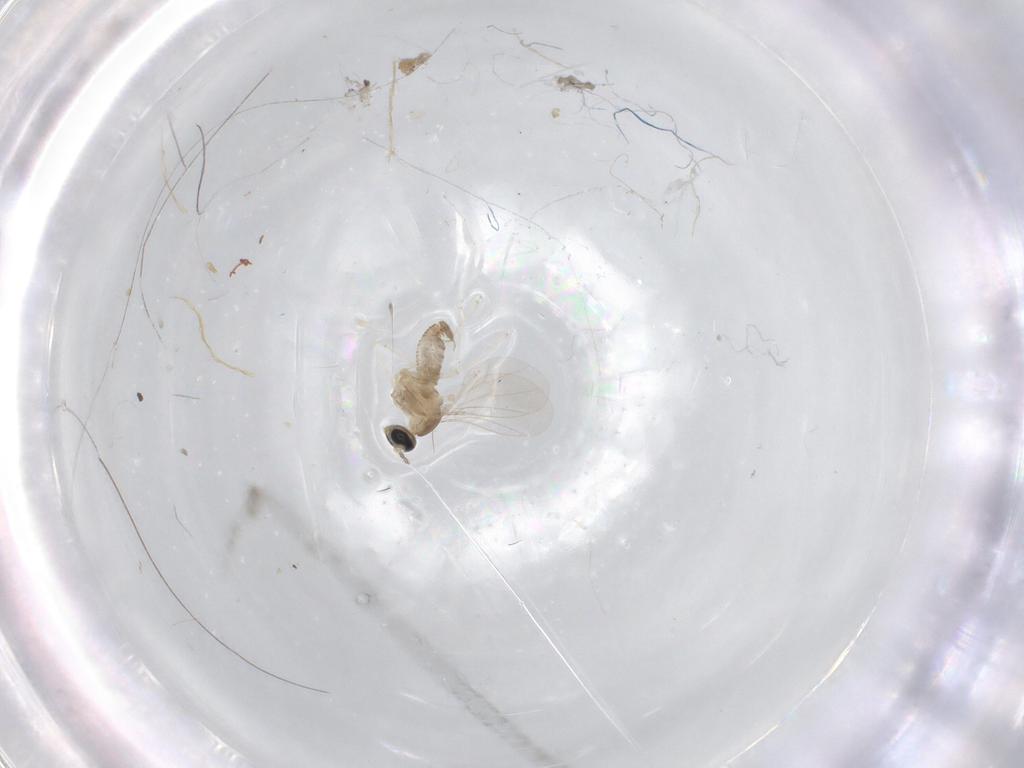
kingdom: Animalia
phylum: Arthropoda
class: Insecta
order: Diptera
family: Cecidomyiidae
